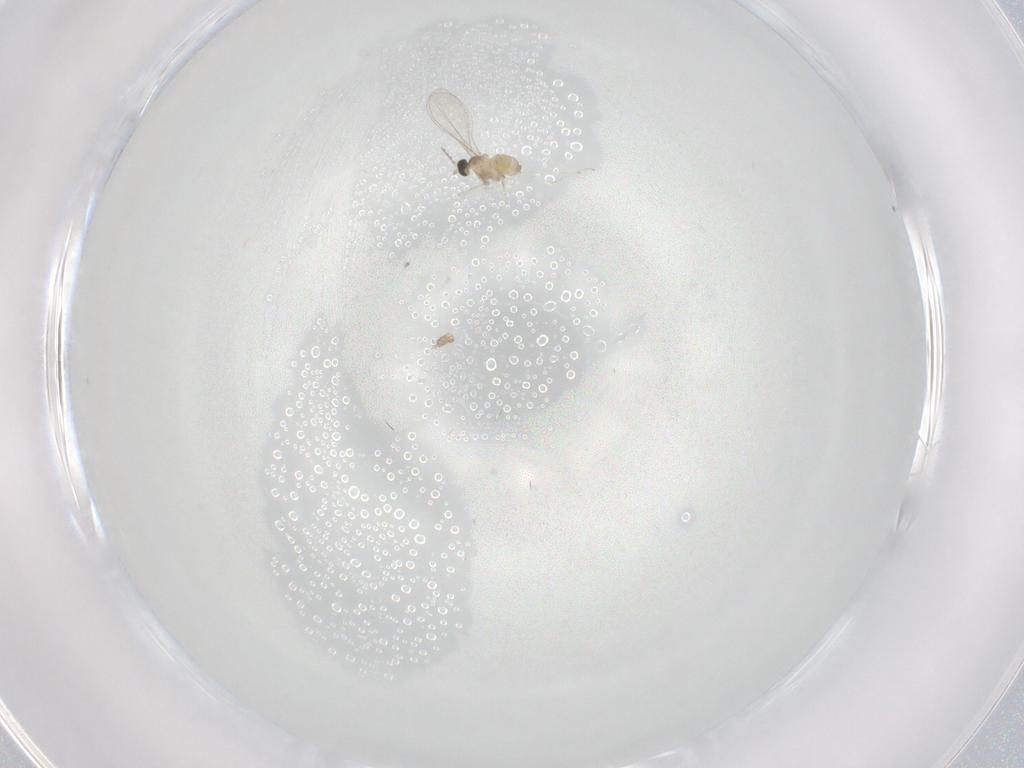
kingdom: Animalia
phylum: Arthropoda
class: Insecta
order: Diptera
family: Cecidomyiidae
